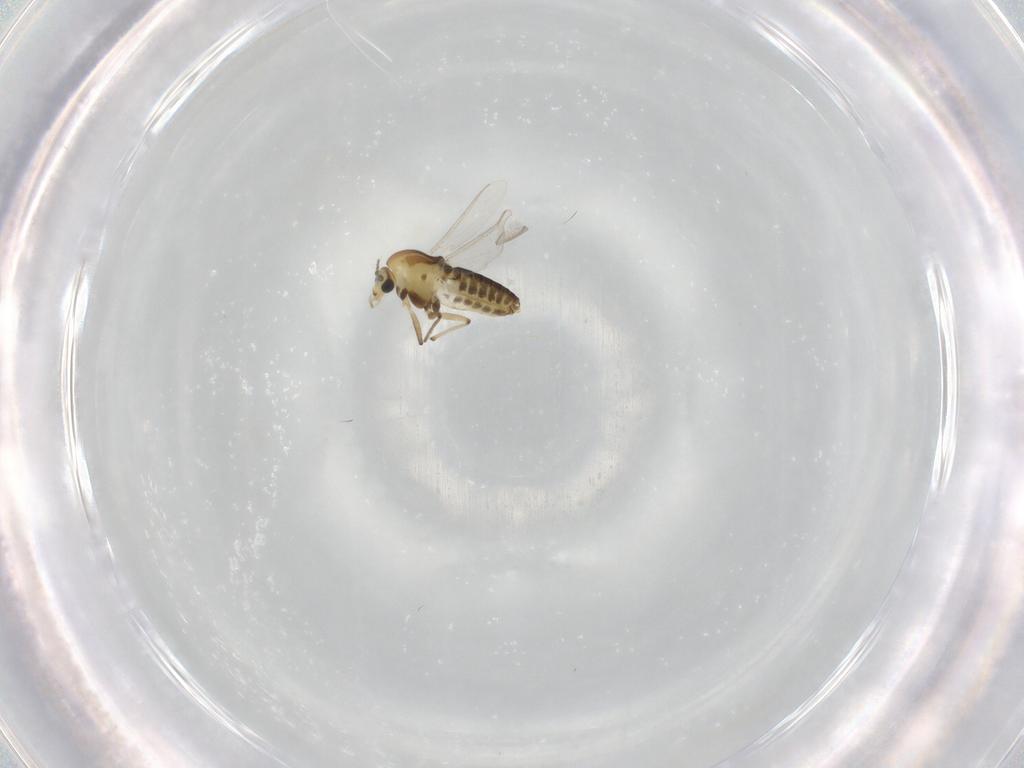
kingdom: Animalia
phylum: Arthropoda
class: Insecta
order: Diptera
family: Chironomidae
